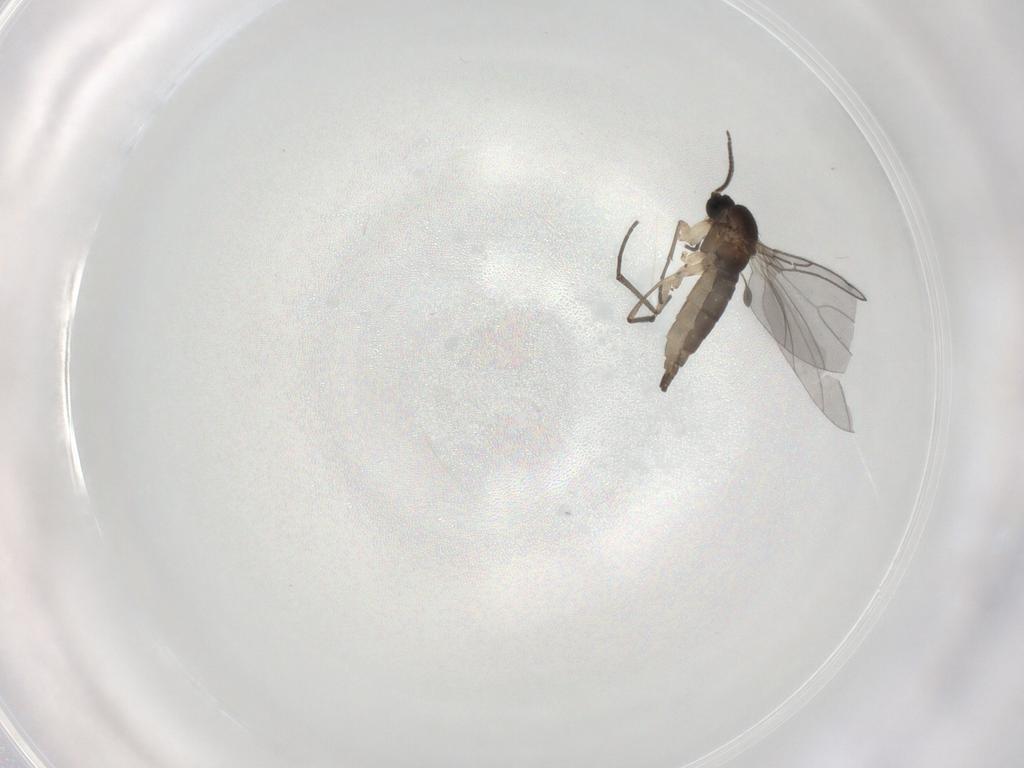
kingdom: Animalia
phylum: Arthropoda
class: Insecta
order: Diptera
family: Sciaridae
